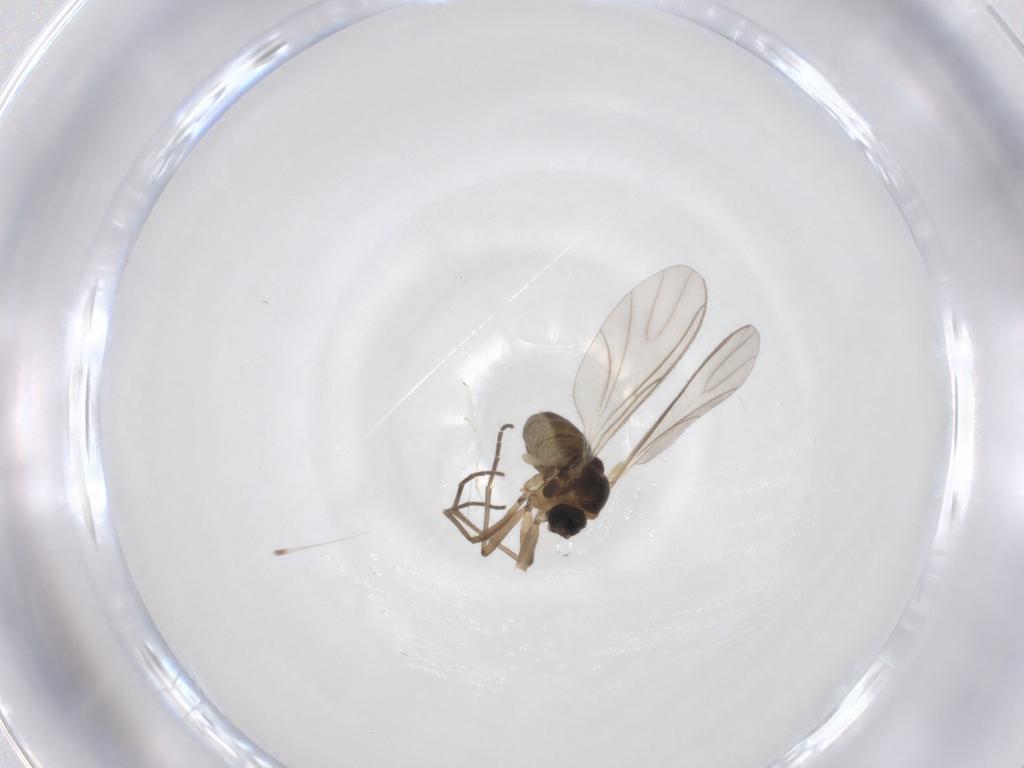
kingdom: Animalia
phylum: Arthropoda
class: Insecta
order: Diptera
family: Cecidomyiidae
